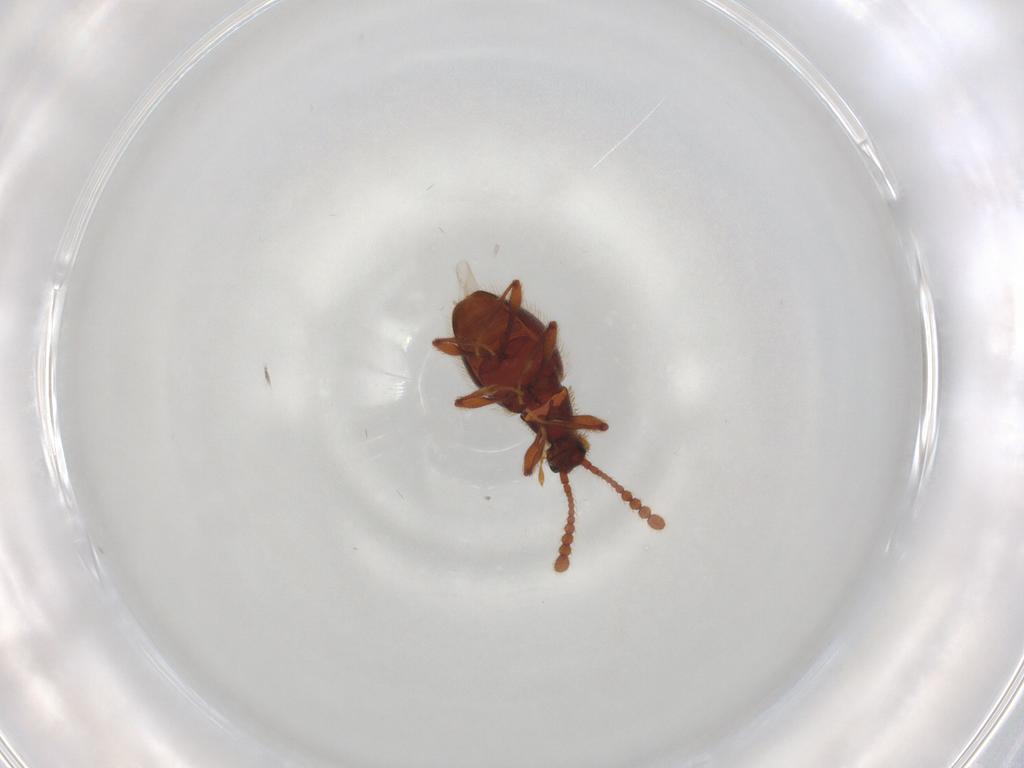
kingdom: Animalia
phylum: Arthropoda
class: Insecta
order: Coleoptera
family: Staphylinidae
